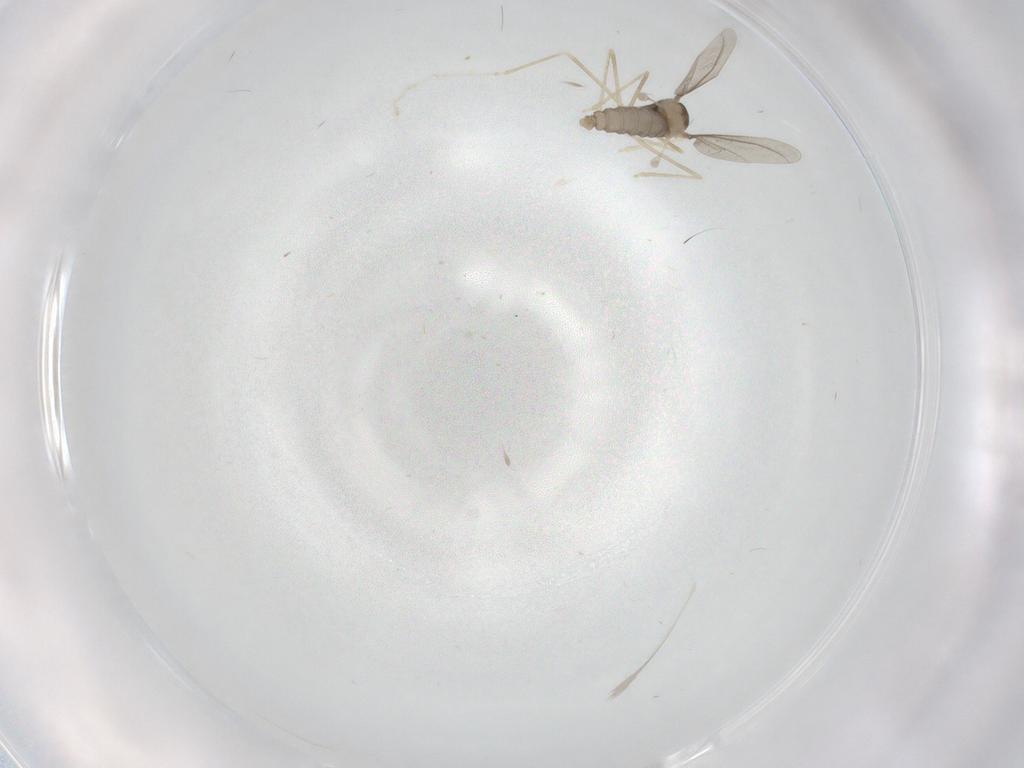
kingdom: Animalia
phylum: Arthropoda
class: Insecta
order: Diptera
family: Cecidomyiidae
